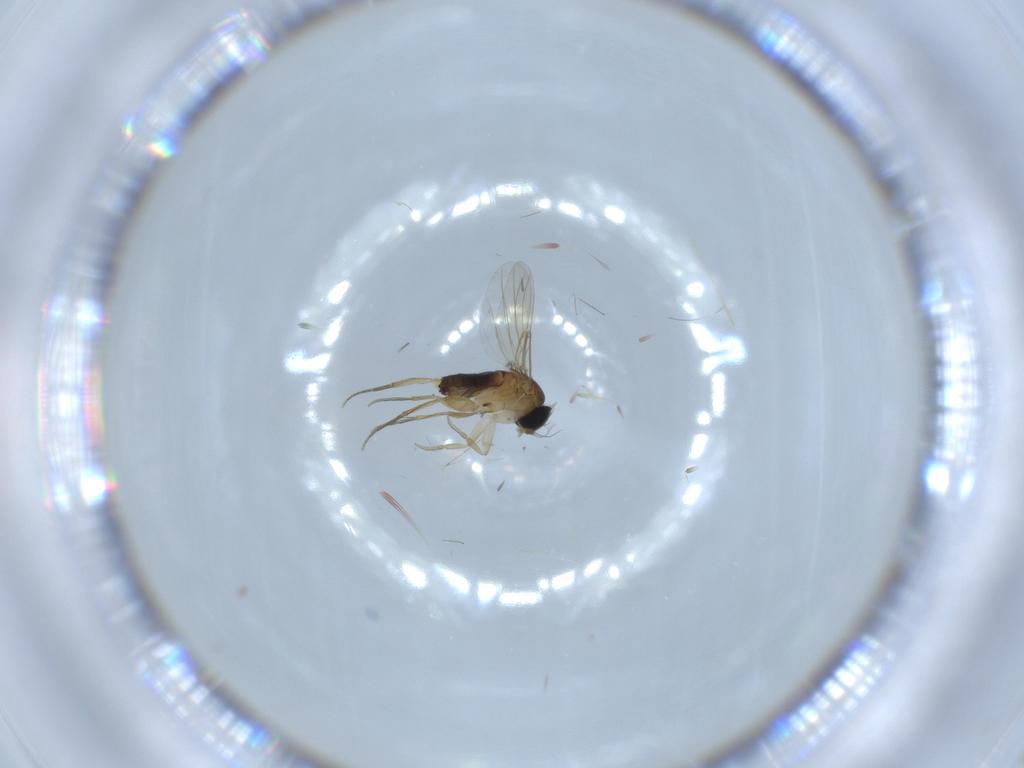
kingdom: Animalia
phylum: Arthropoda
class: Insecta
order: Diptera
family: Phoridae
